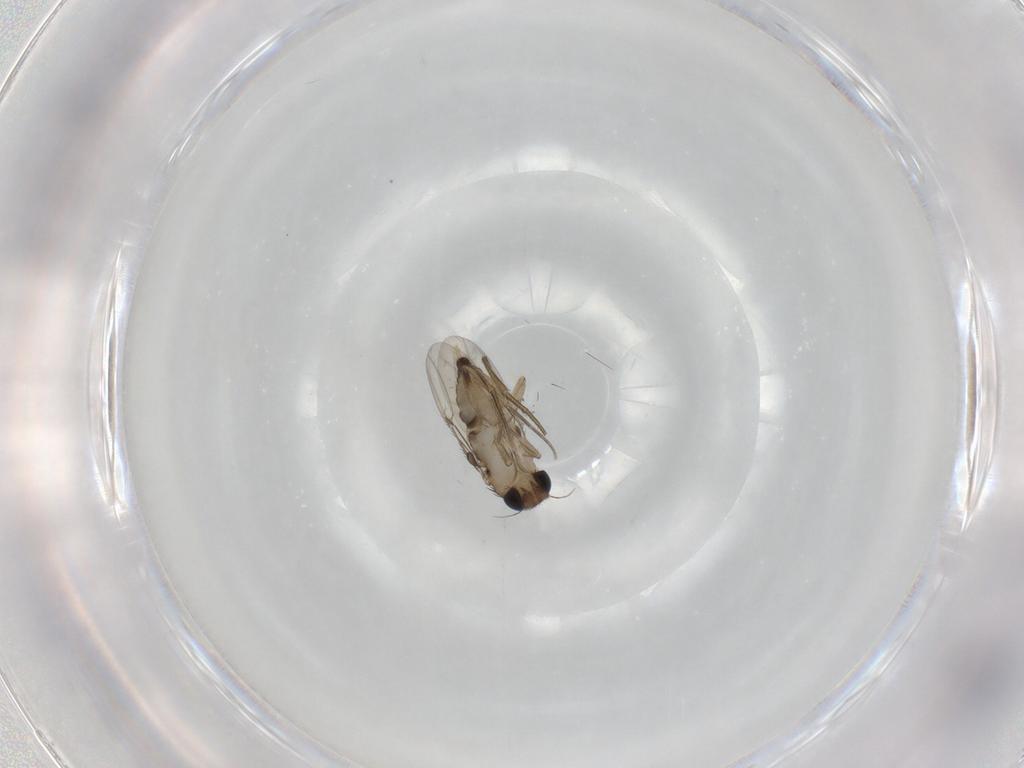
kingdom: Animalia
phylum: Arthropoda
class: Insecta
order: Diptera
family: Phoridae
